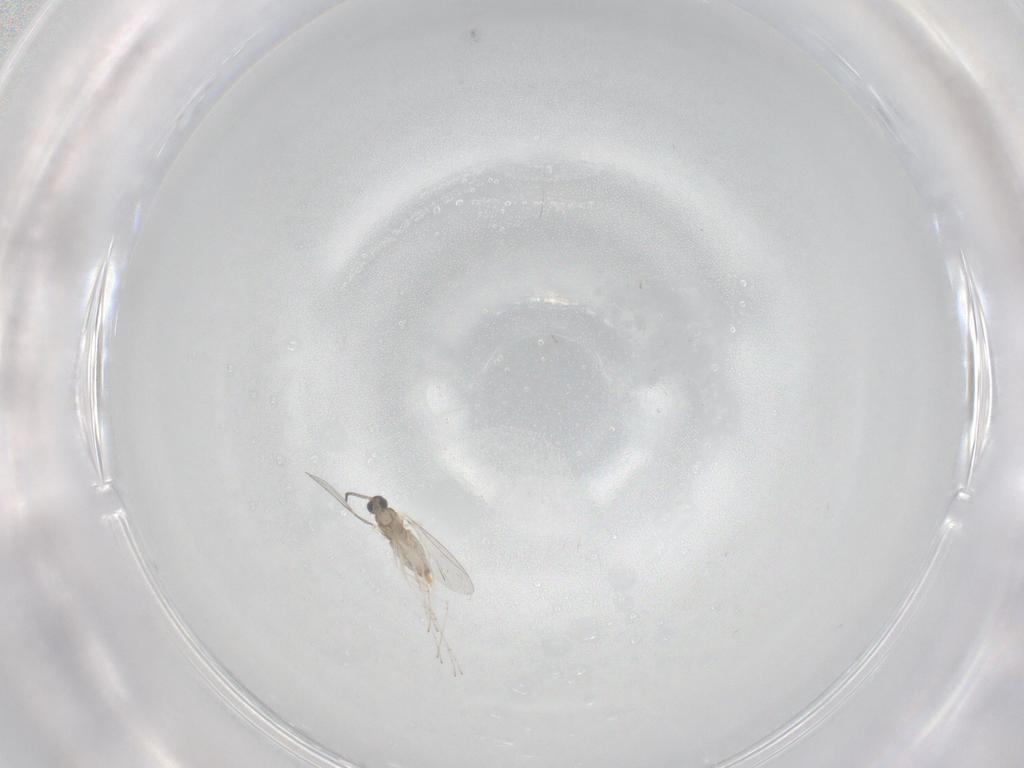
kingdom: Animalia
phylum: Arthropoda
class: Insecta
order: Diptera
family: Cecidomyiidae
